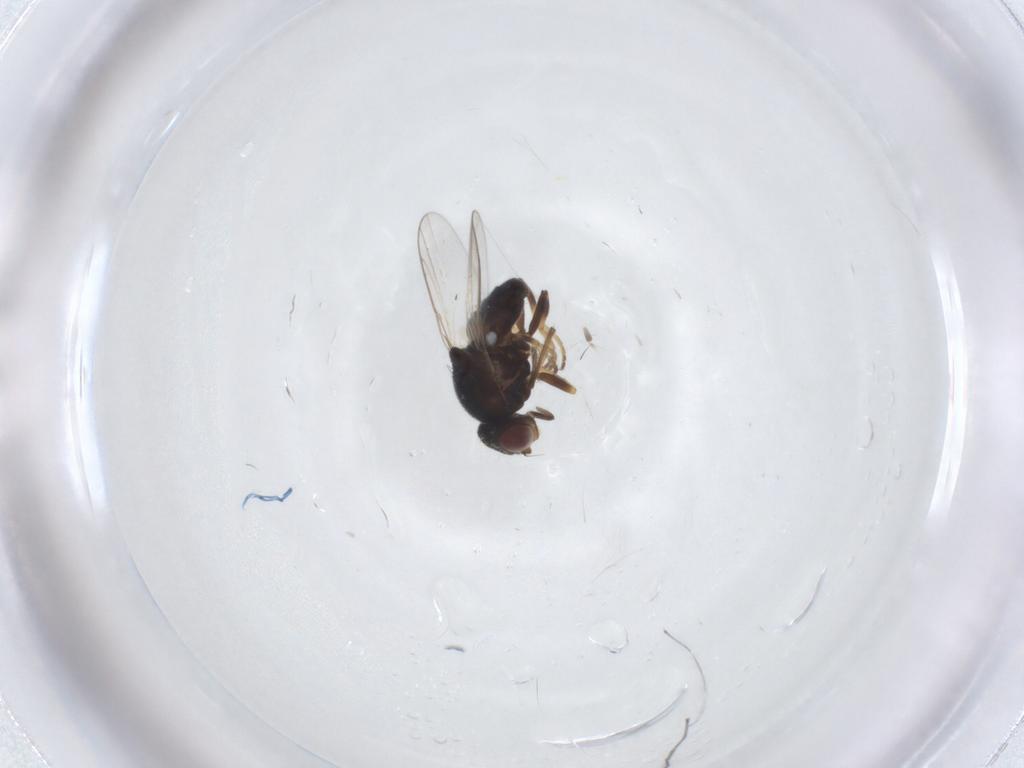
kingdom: Animalia
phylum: Arthropoda
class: Insecta
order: Diptera
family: Chloropidae
